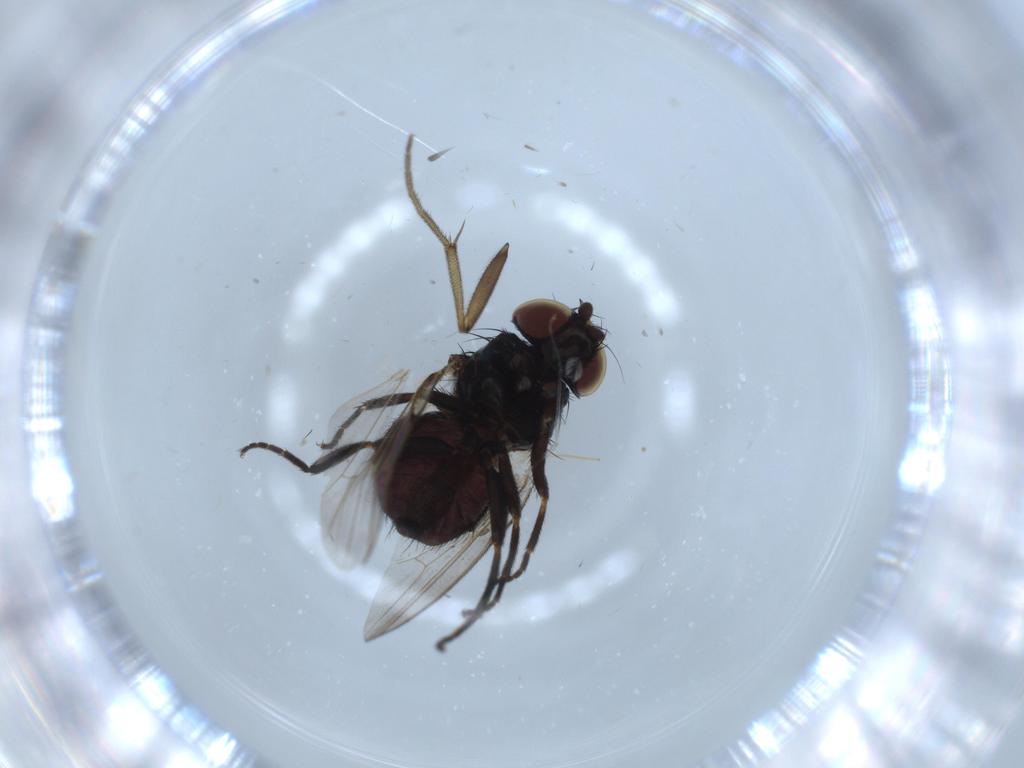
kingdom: Animalia
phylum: Arthropoda
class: Insecta
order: Diptera
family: Milichiidae
